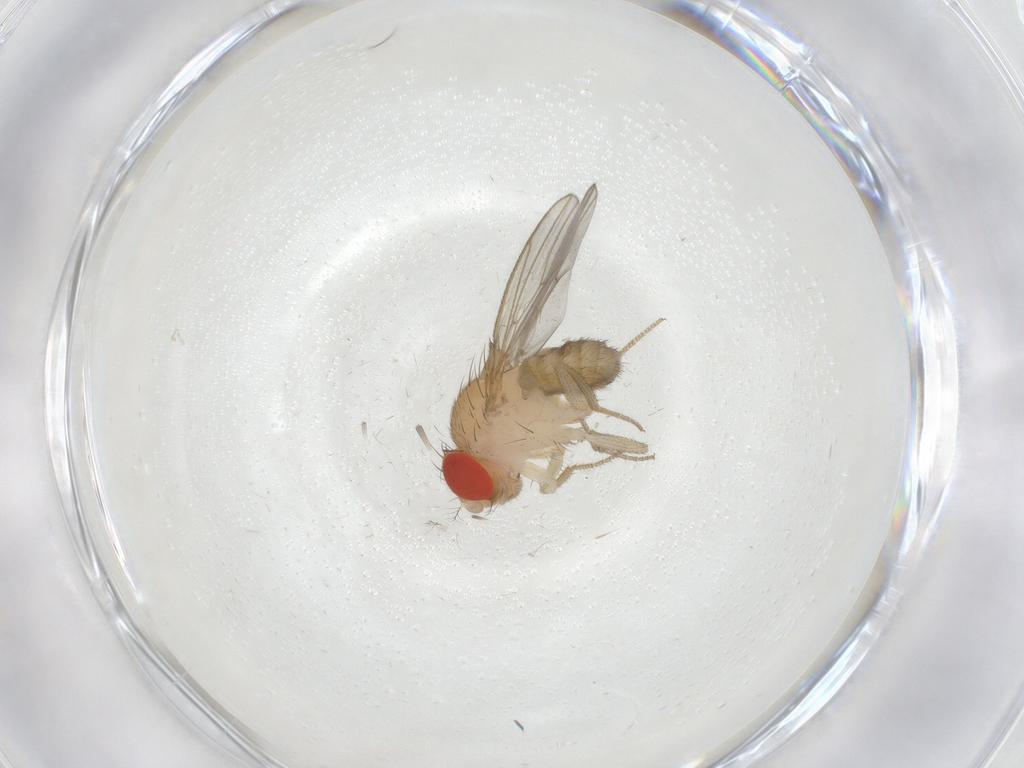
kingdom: Animalia
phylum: Arthropoda
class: Insecta
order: Diptera
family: Drosophilidae
